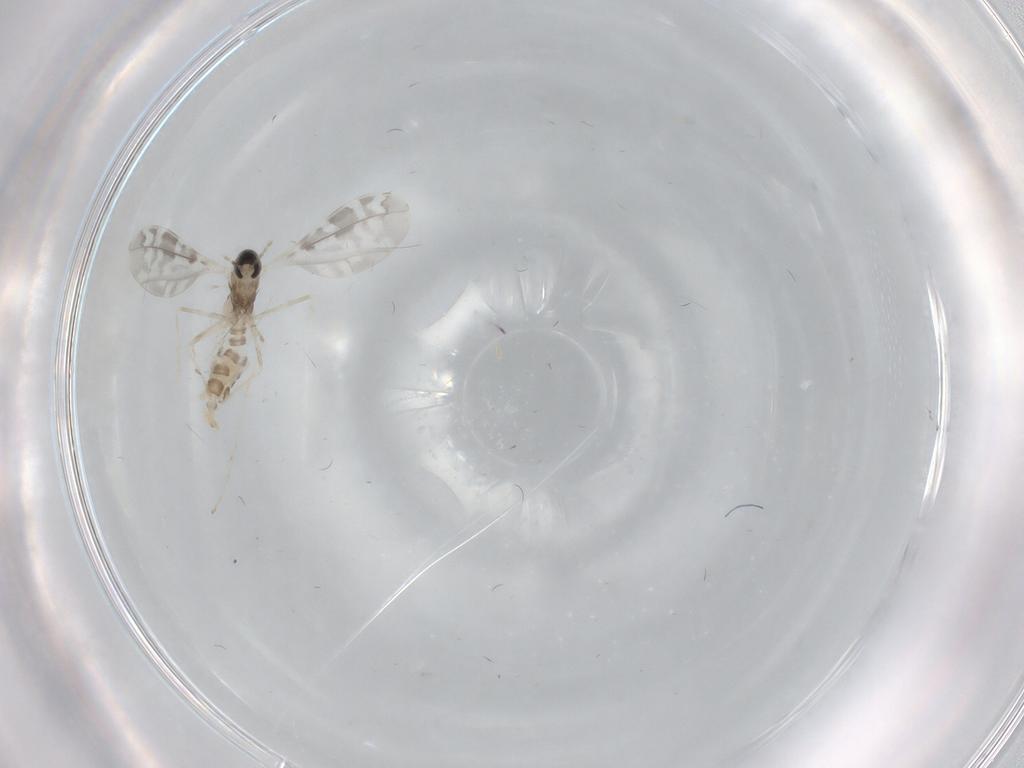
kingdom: Animalia
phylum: Arthropoda
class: Insecta
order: Diptera
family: Cecidomyiidae
